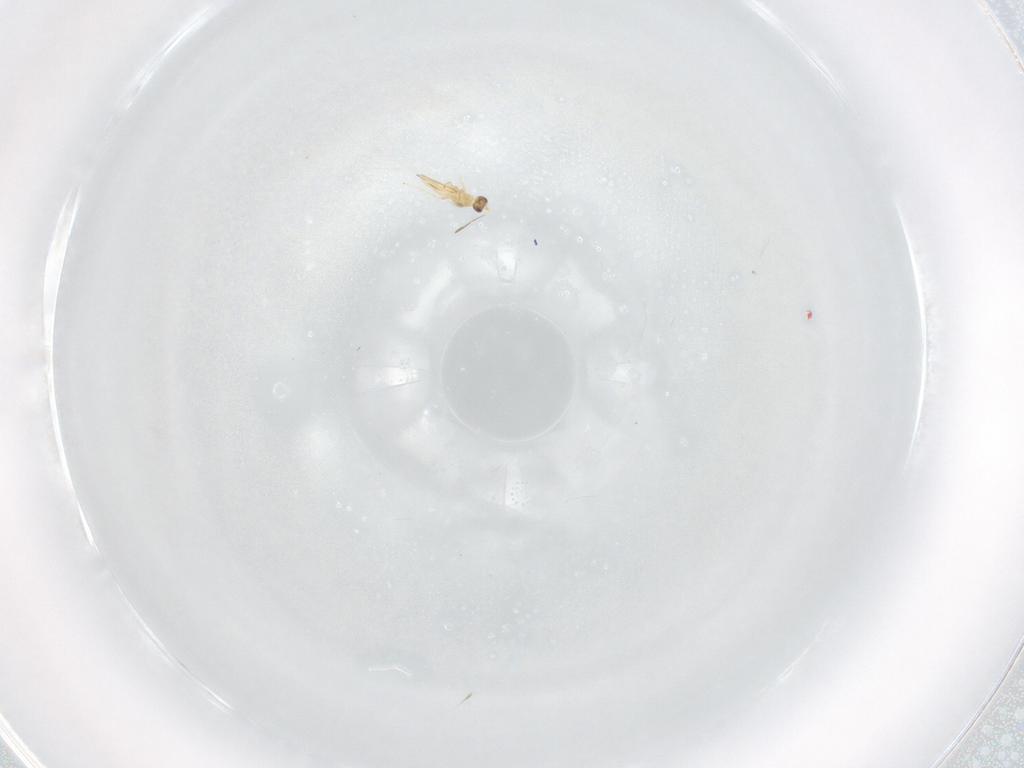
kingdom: Animalia
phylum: Arthropoda
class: Insecta
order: Hymenoptera
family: Mymaridae
